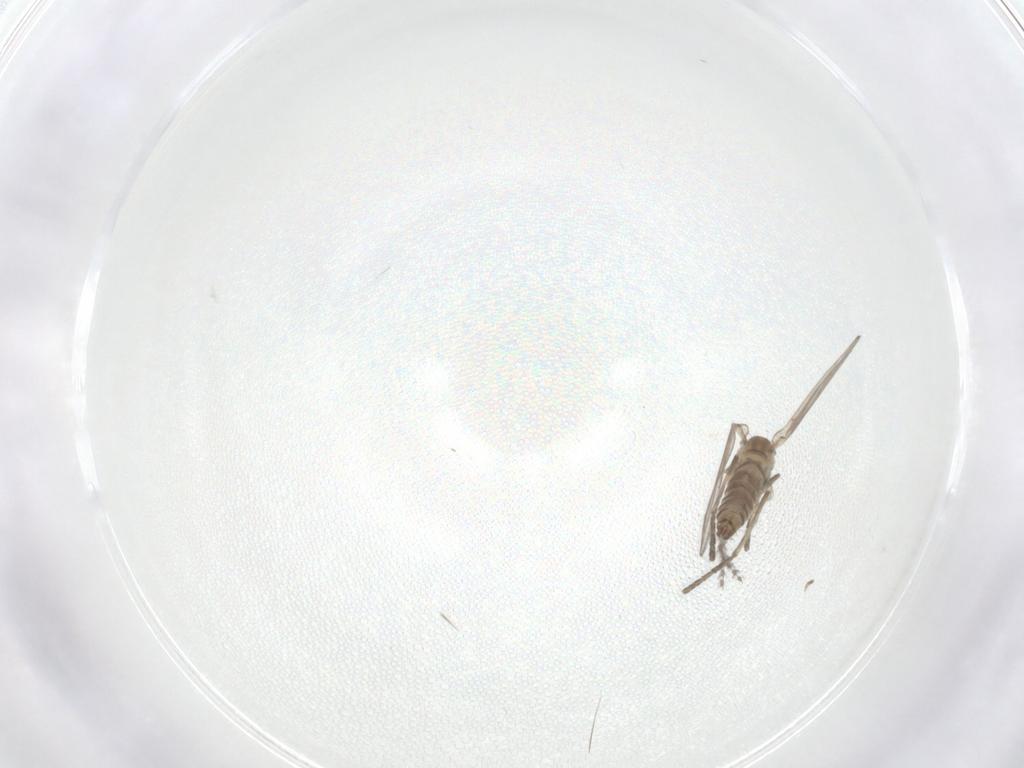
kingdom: Animalia
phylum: Arthropoda
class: Insecta
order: Diptera
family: Psychodidae
